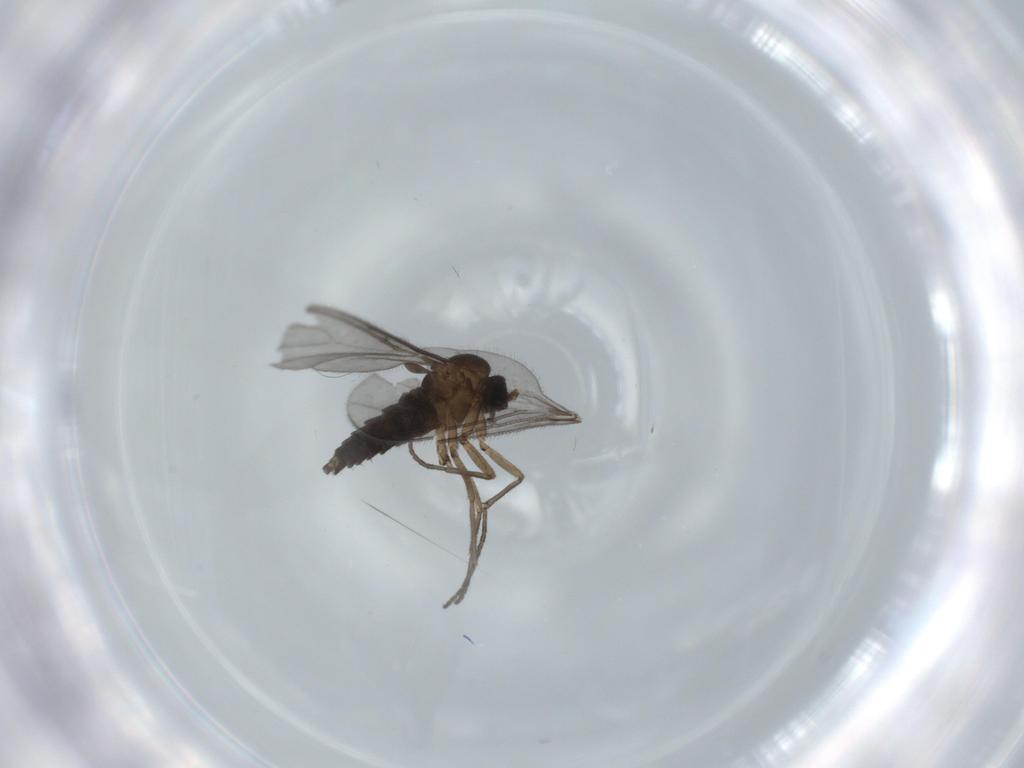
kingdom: Animalia
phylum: Arthropoda
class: Insecta
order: Diptera
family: Sciaridae
